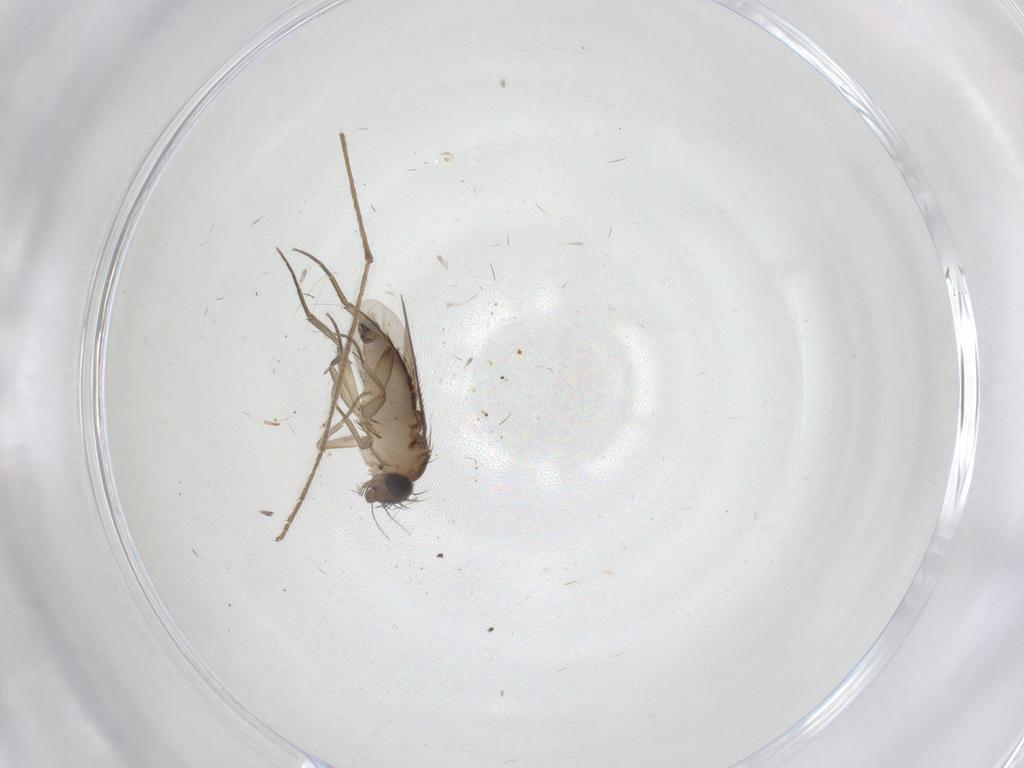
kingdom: Animalia
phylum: Arthropoda
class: Insecta
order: Diptera
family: Phoridae
